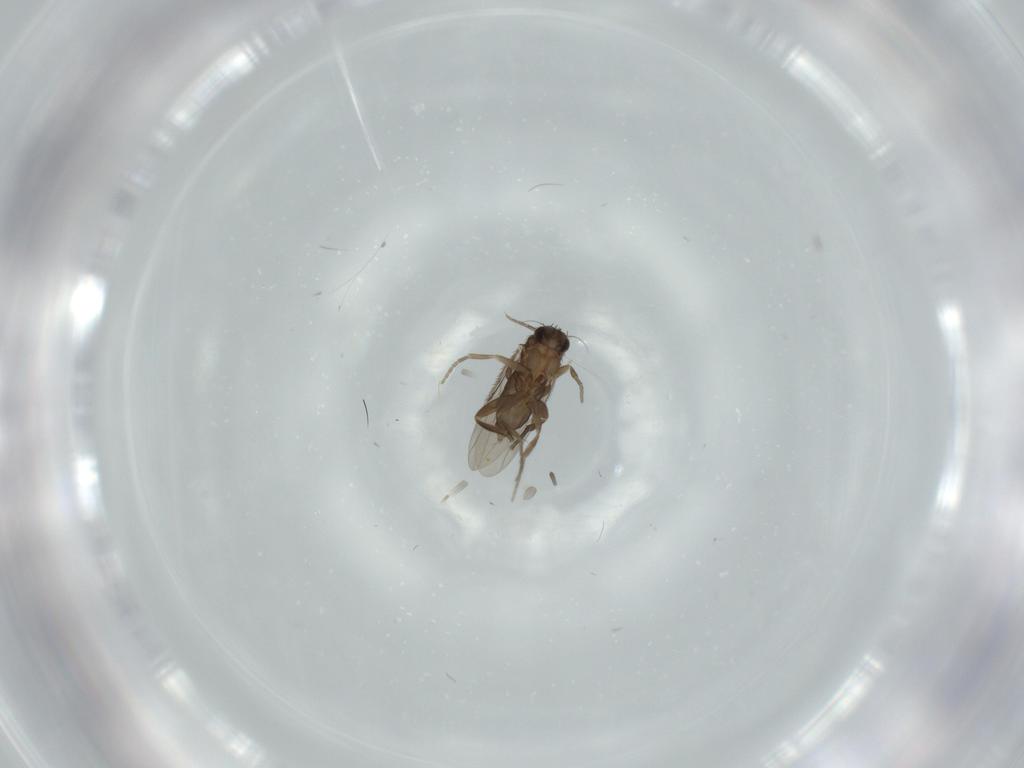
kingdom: Animalia
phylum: Arthropoda
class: Insecta
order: Diptera
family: Phoridae
